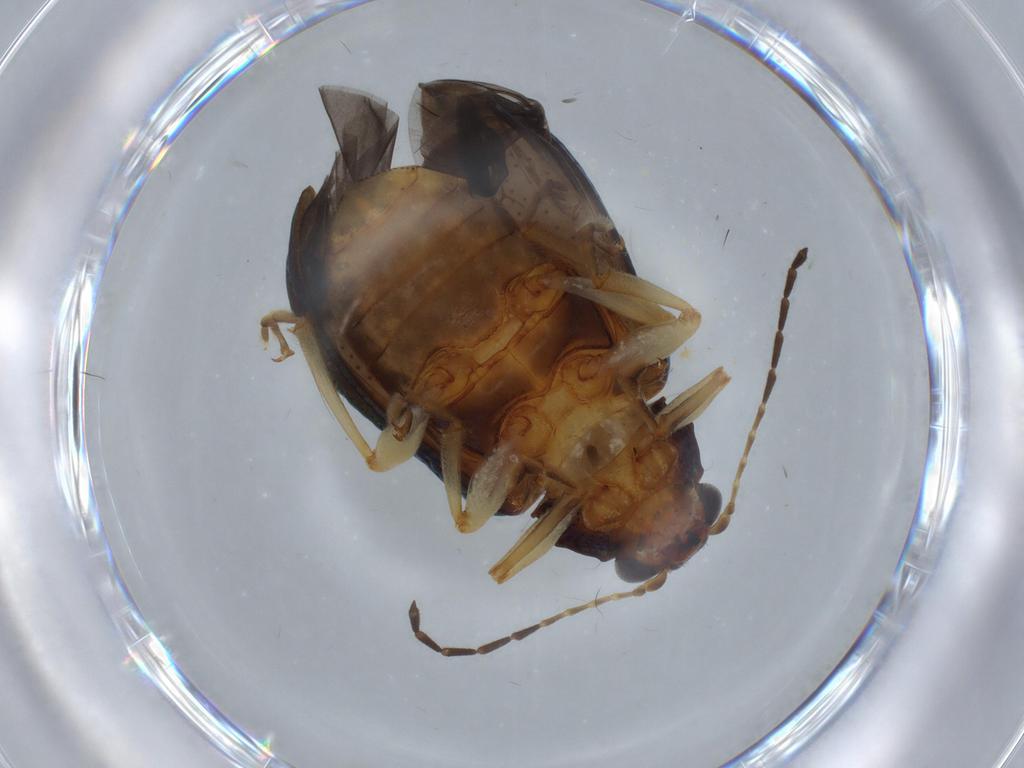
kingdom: Animalia
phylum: Arthropoda
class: Insecta
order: Coleoptera
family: Chrysomelidae
